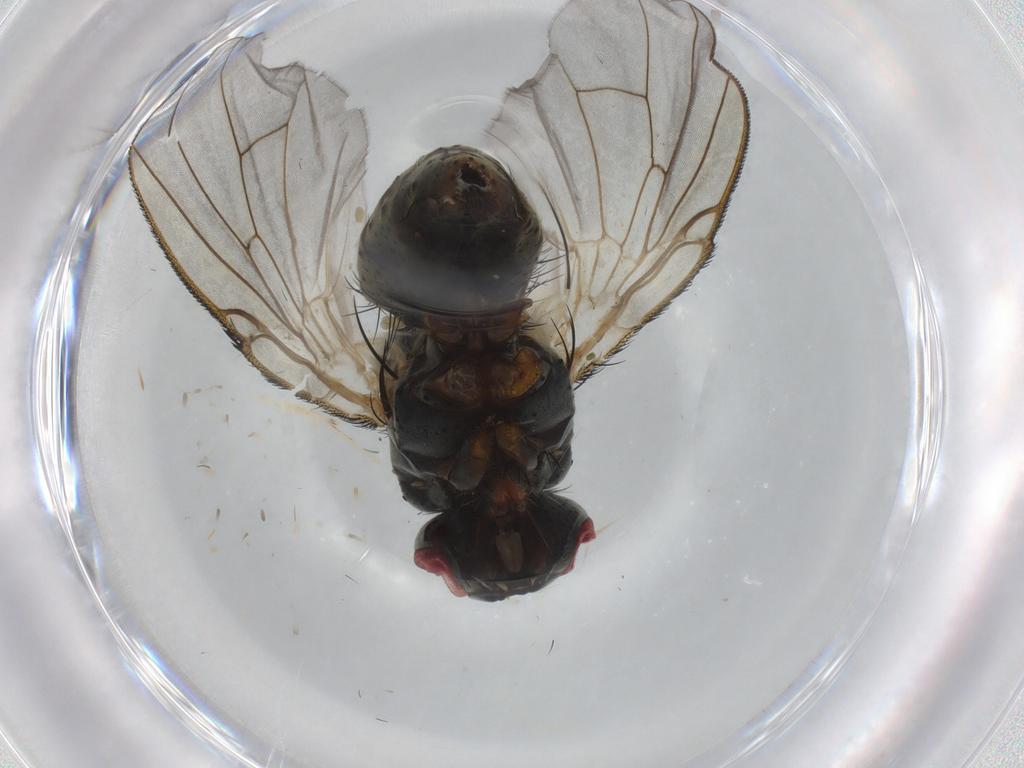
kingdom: Animalia
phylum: Arthropoda
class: Insecta
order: Diptera
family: Muscidae
